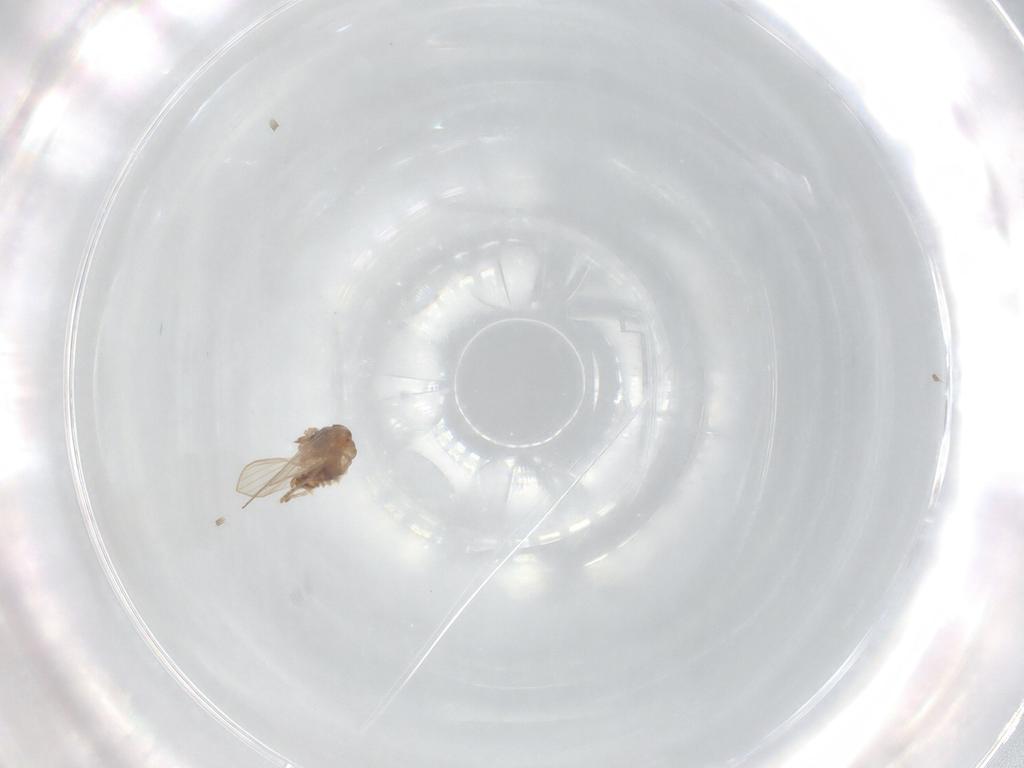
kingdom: Animalia
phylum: Arthropoda
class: Insecta
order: Diptera
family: Psychodidae
